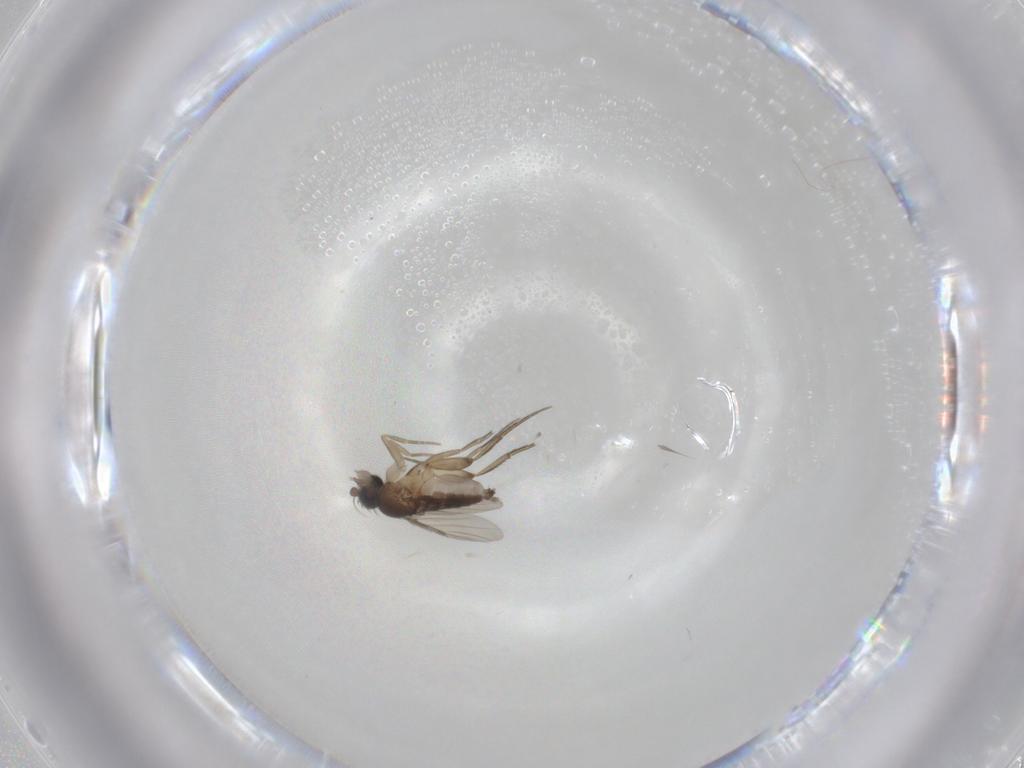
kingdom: Animalia
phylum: Arthropoda
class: Insecta
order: Diptera
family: Phoridae
